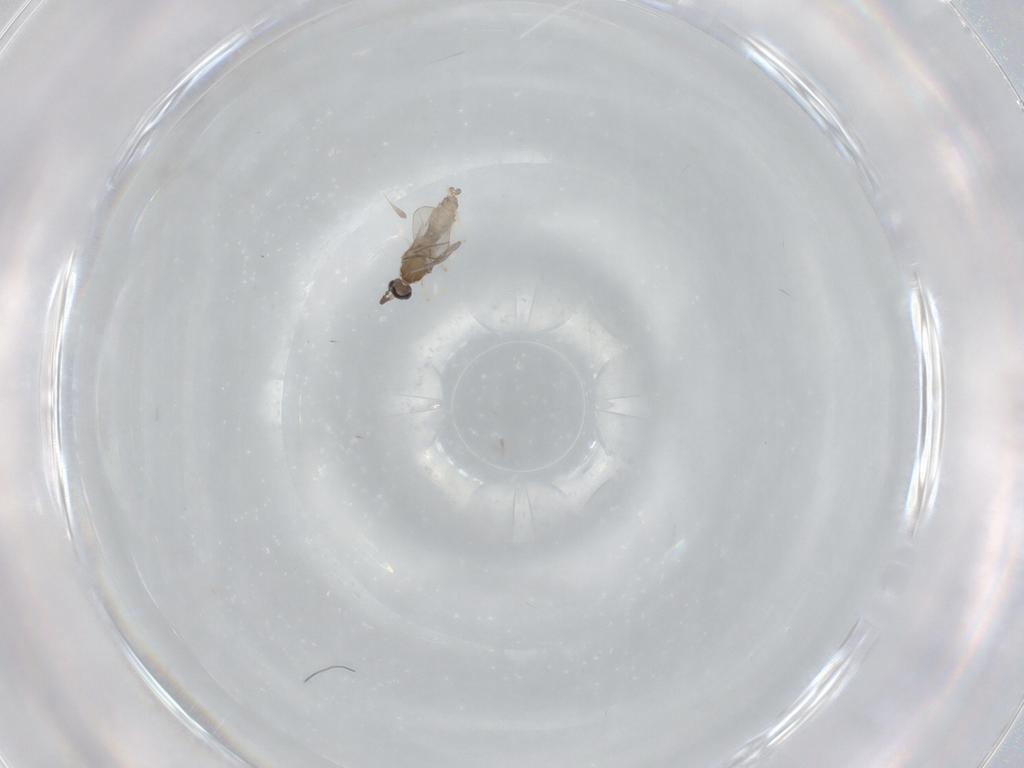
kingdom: Animalia
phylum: Arthropoda
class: Insecta
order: Diptera
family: Cecidomyiidae
